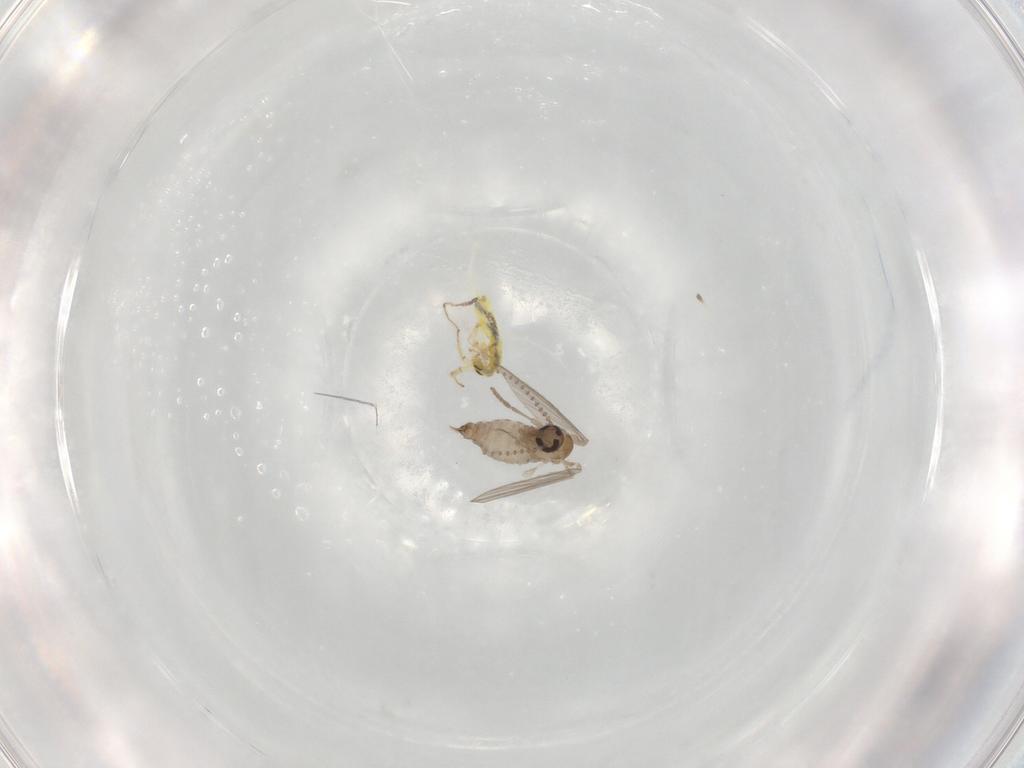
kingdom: Animalia
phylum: Arthropoda
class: Insecta
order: Diptera
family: Psychodidae
